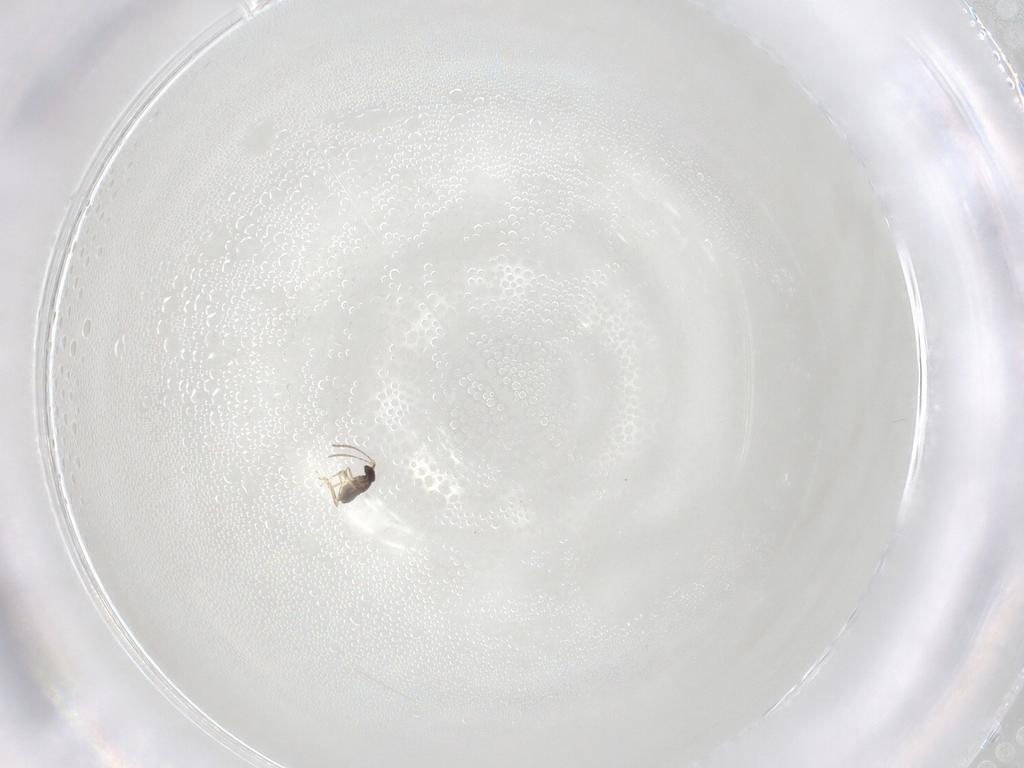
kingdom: Animalia
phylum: Arthropoda
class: Insecta
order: Hymenoptera
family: Mymaridae
